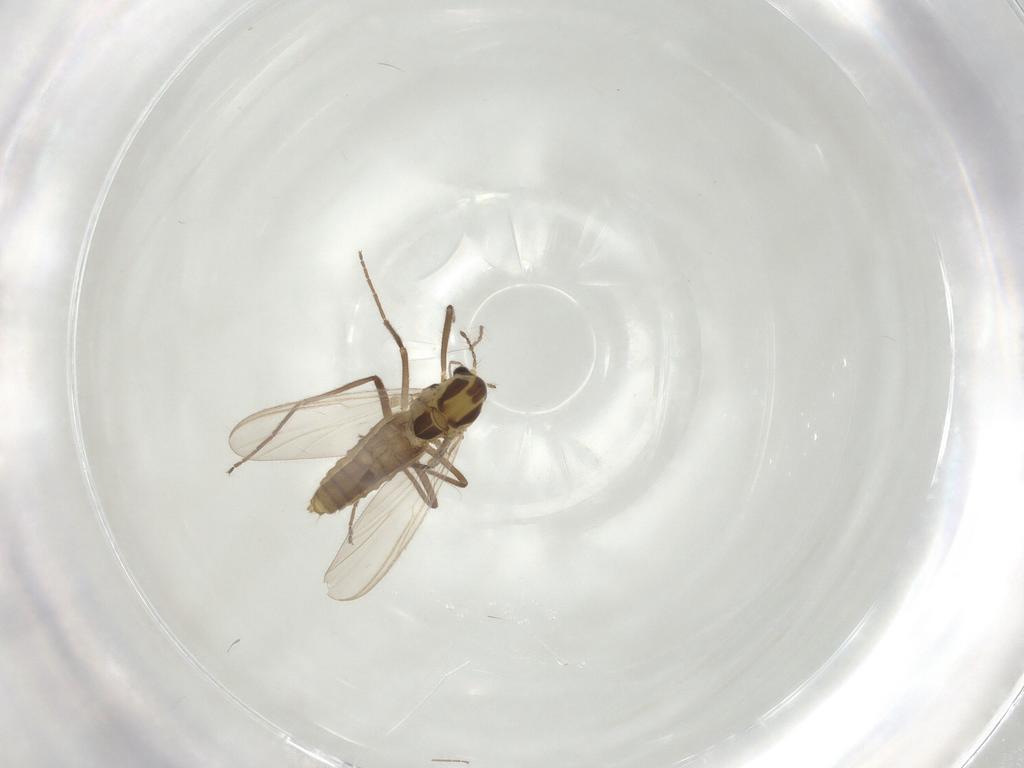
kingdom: Animalia
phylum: Arthropoda
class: Insecta
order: Diptera
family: Chironomidae
